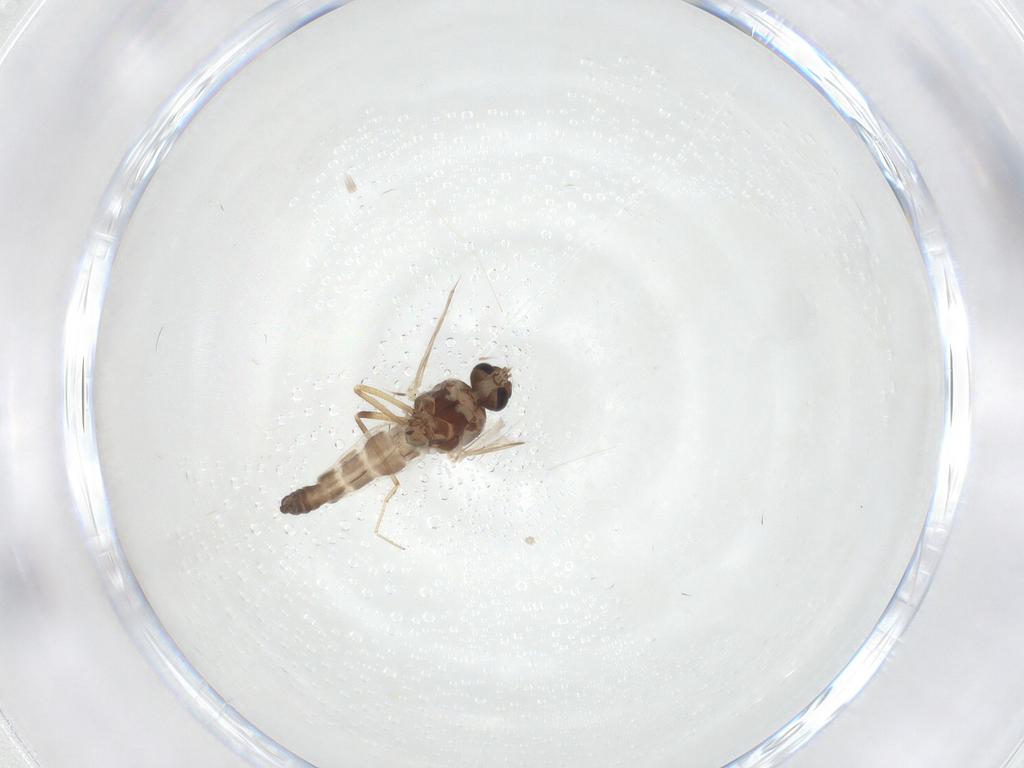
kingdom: Animalia
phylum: Arthropoda
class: Insecta
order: Diptera
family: Ceratopogonidae
